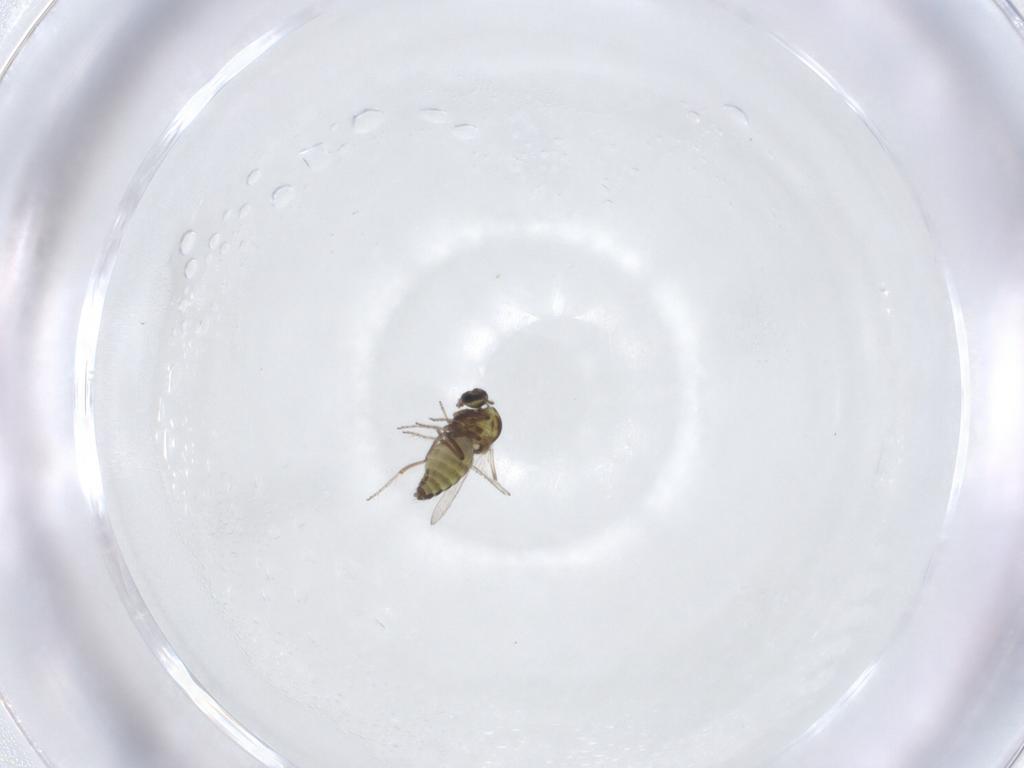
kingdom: Animalia
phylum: Arthropoda
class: Insecta
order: Diptera
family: Ceratopogonidae
